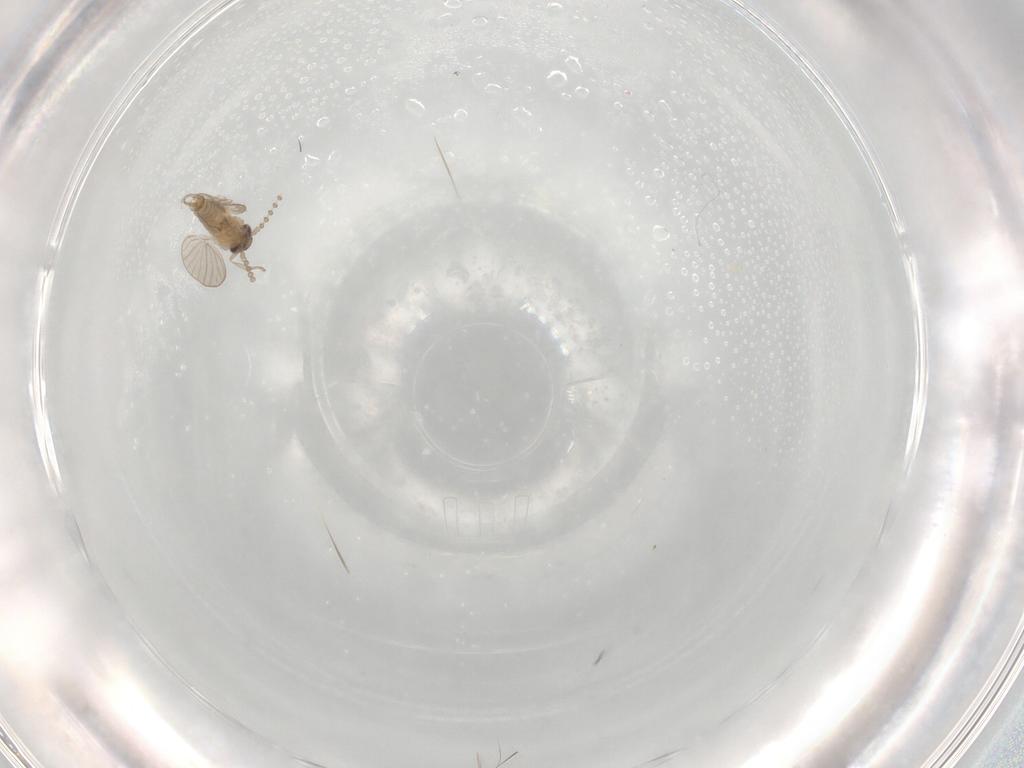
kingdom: Animalia
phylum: Arthropoda
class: Insecta
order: Diptera
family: Psychodidae
